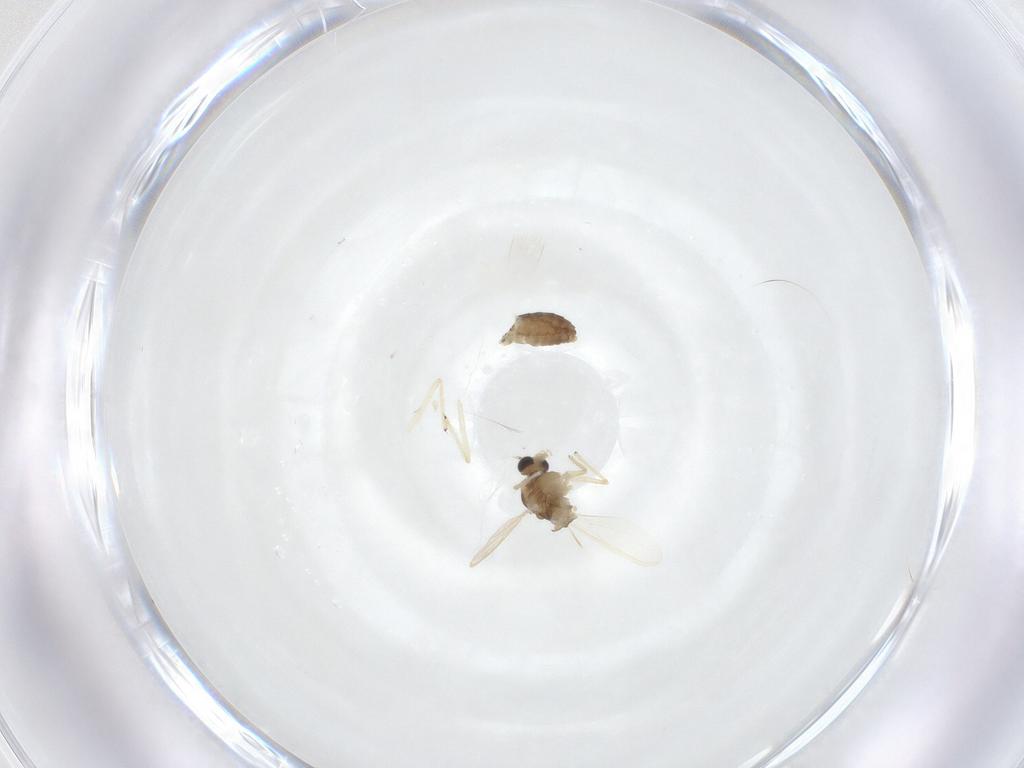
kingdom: Animalia
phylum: Arthropoda
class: Insecta
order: Diptera
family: Chironomidae
